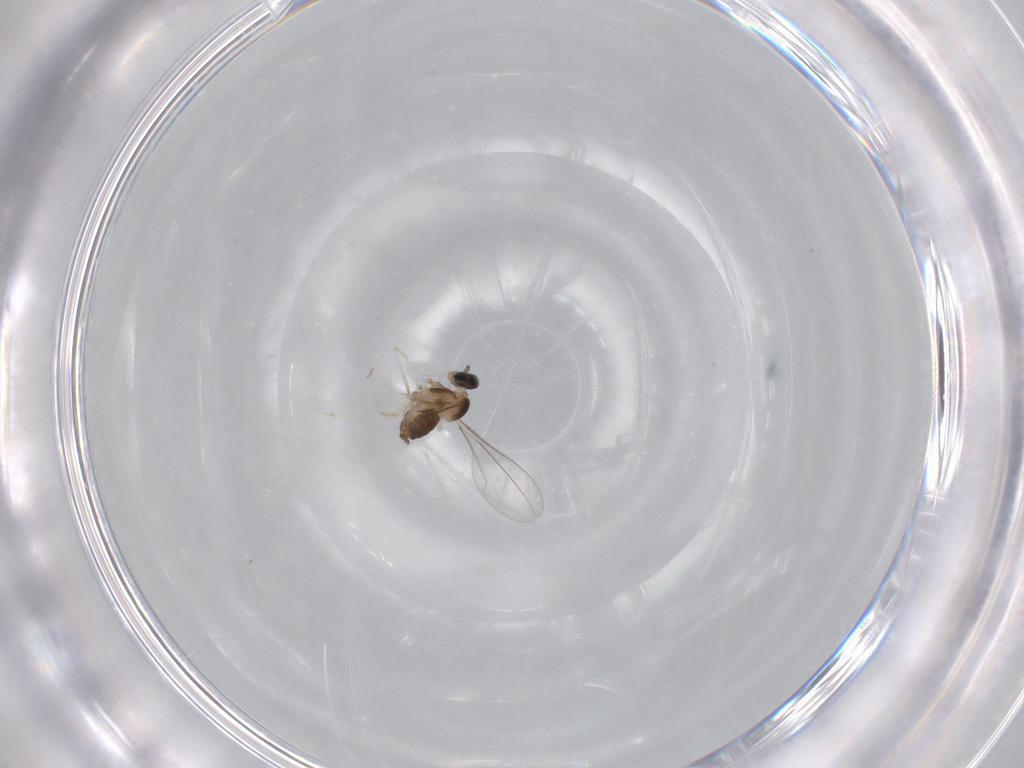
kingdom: Animalia
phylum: Arthropoda
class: Insecta
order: Diptera
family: Cecidomyiidae
